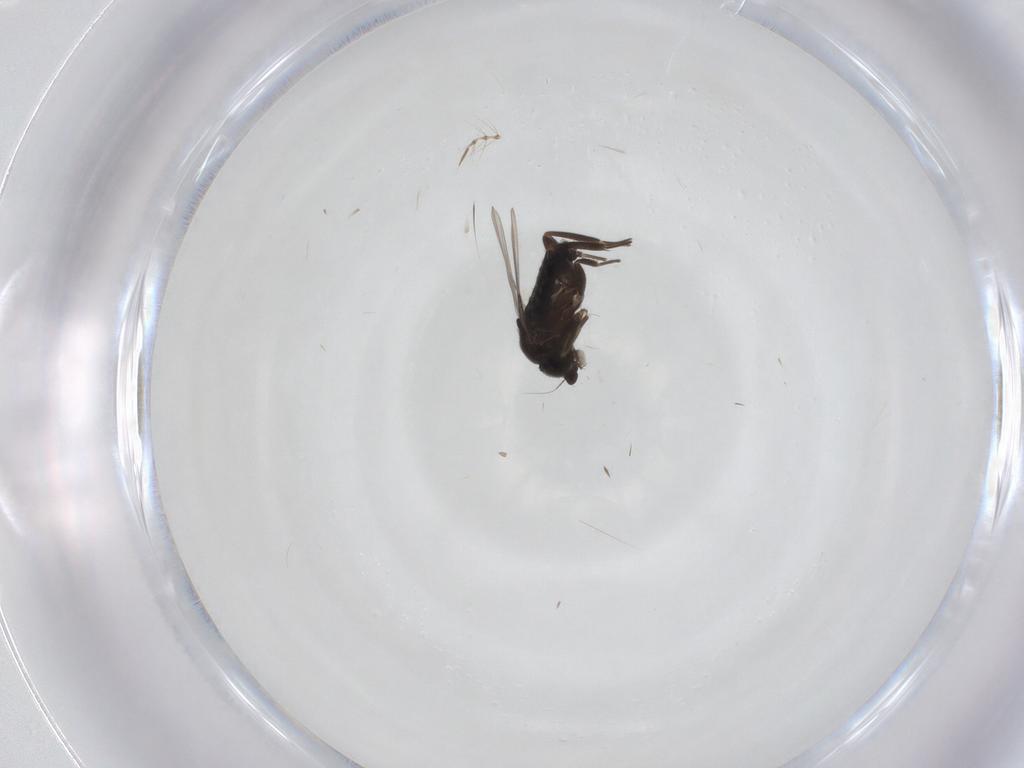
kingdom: Animalia
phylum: Arthropoda
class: Insecta
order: Diptera
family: Phoridae
